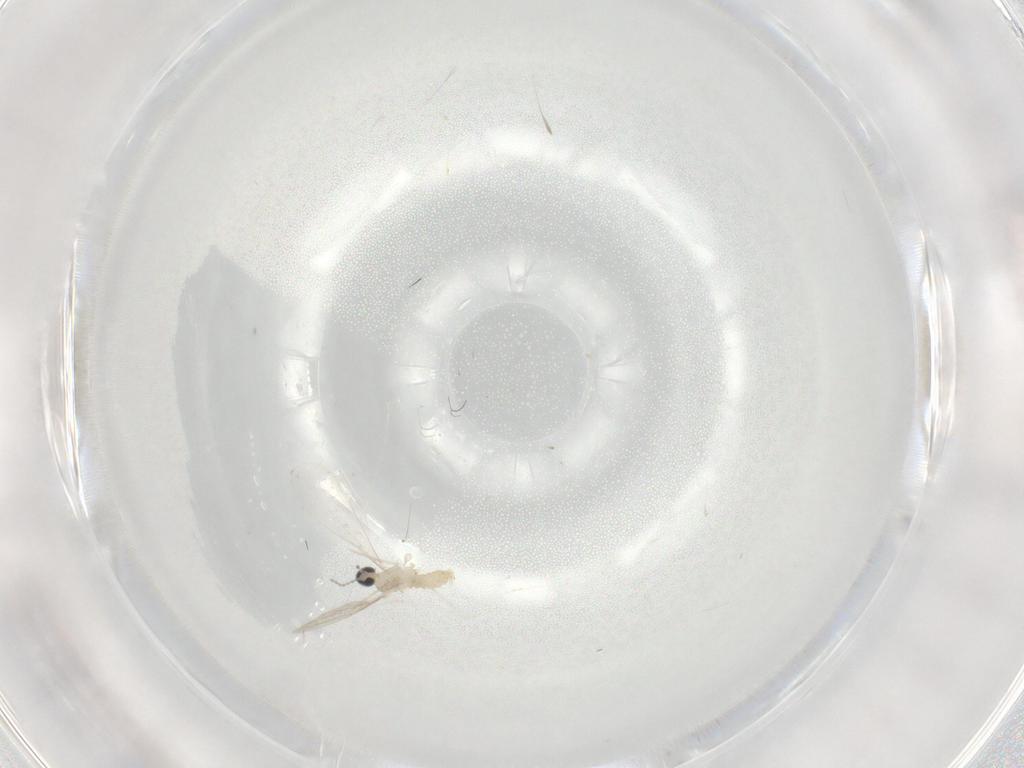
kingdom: Animalia
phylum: Arthropoda
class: Insecta
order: Diptera
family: Cecidomyiidae
